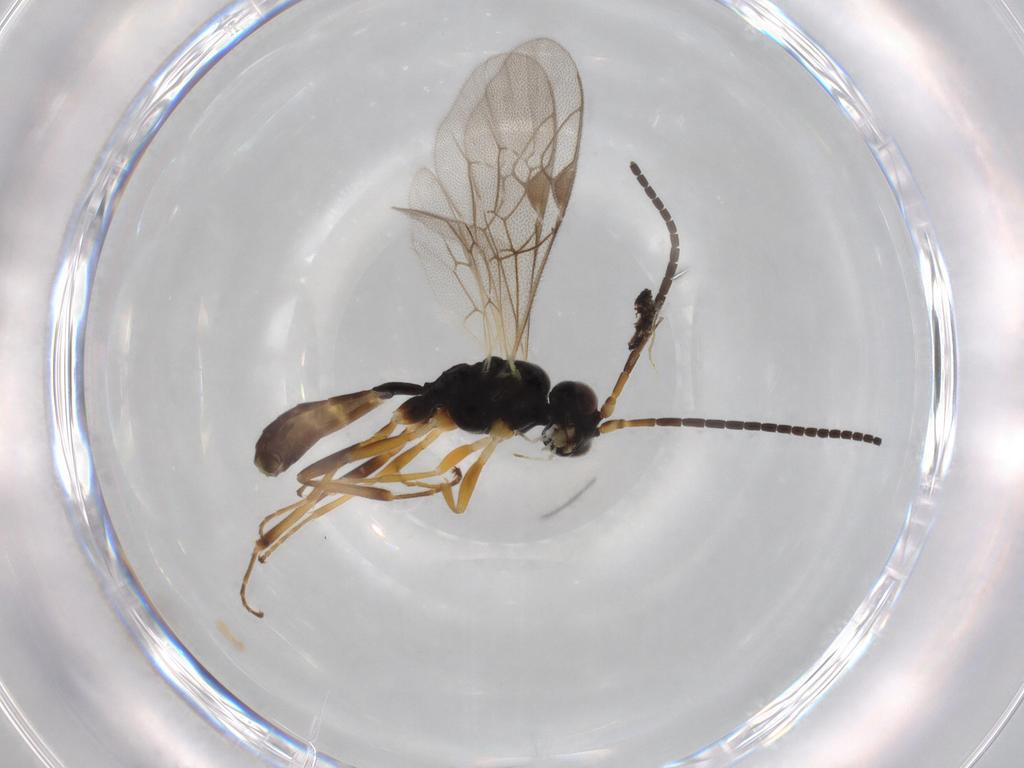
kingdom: Animalia
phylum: Arthropoda
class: Insecta
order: Hymenoptera
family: Ichneumonidae
